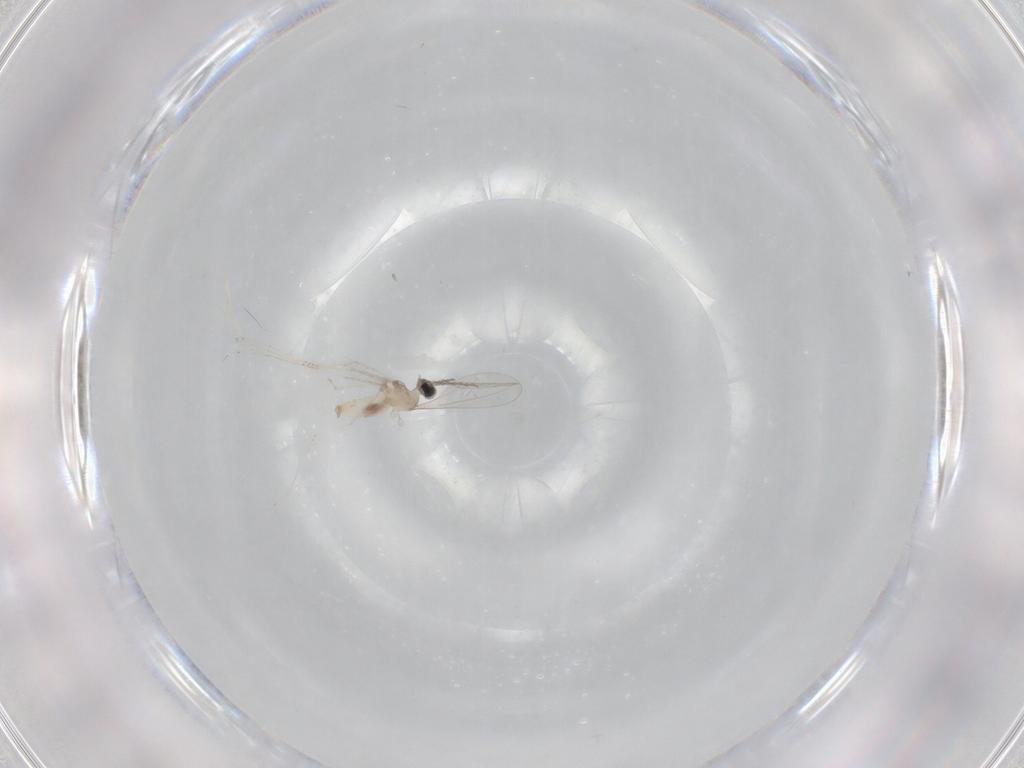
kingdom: Animalia
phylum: Arthropoda
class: Insecta
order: Diptera
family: Cecidomyiidae
